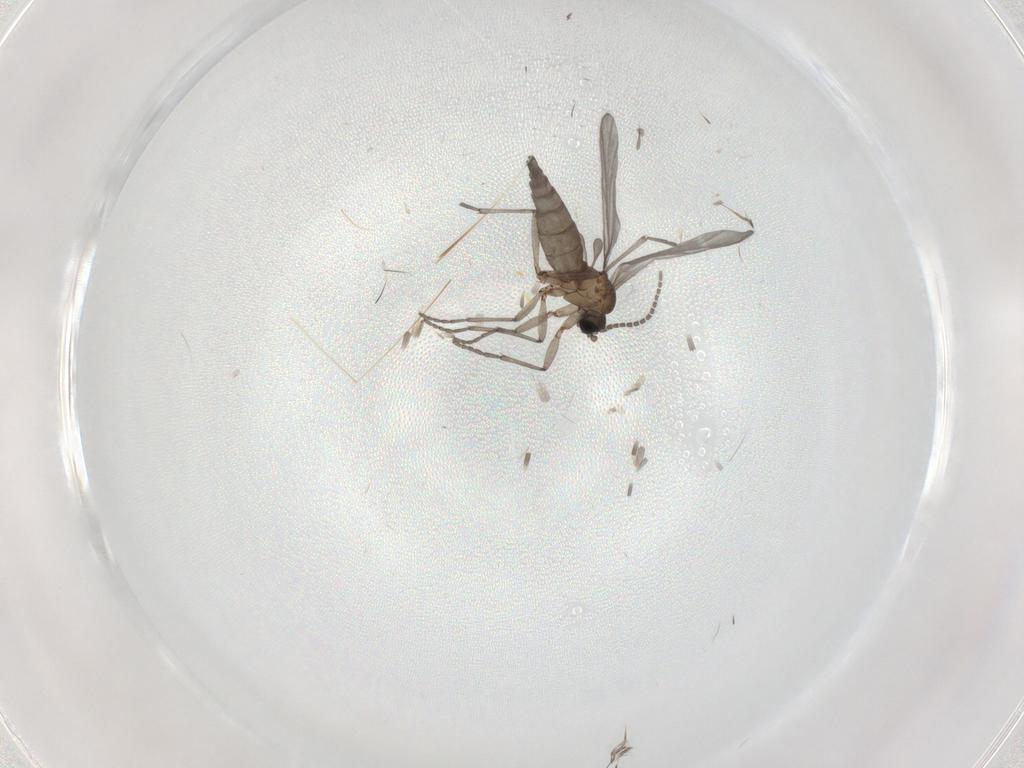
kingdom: Animalia
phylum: Arthropoda
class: Insecta
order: Diptera
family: Sciaridae
